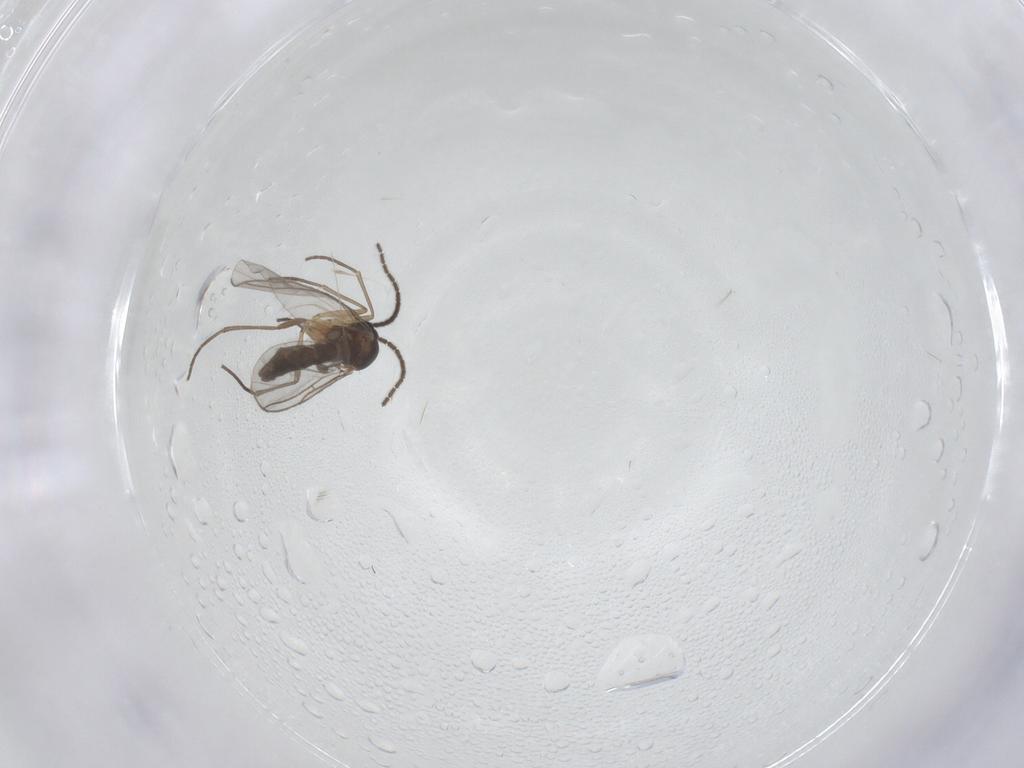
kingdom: Animalia
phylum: Arthropoda
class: Insecta
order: Diptera
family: Sciaridae
